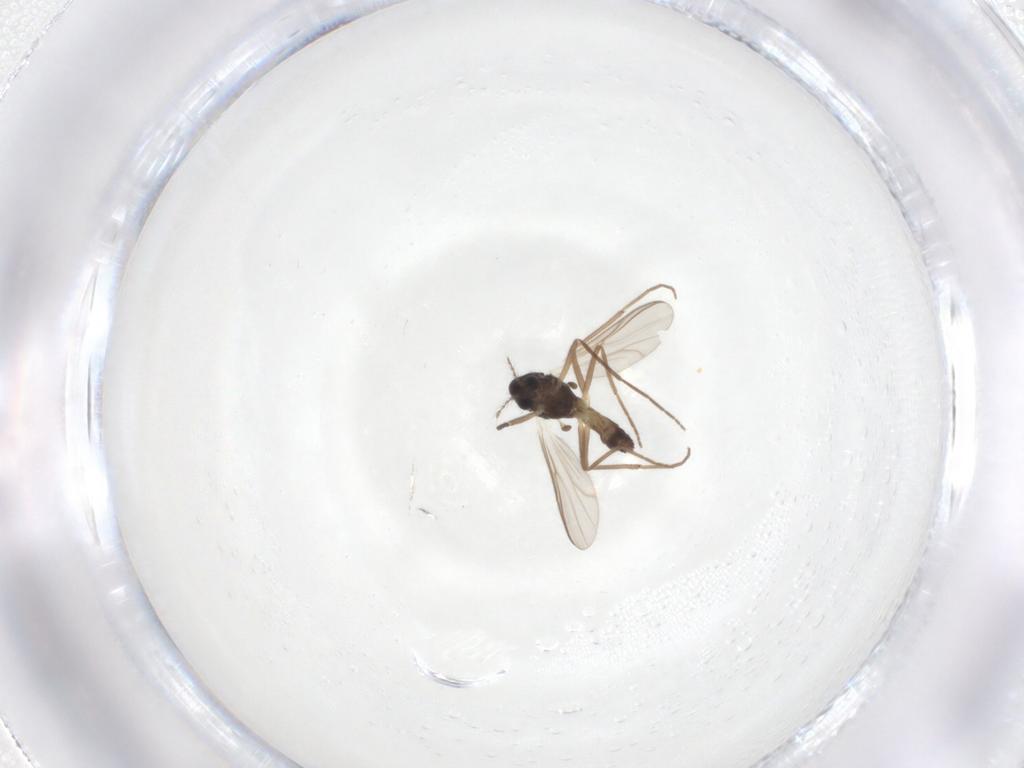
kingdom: Animalia
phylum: Arthropoda
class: Insecta
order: Diptera
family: Chironomidae
